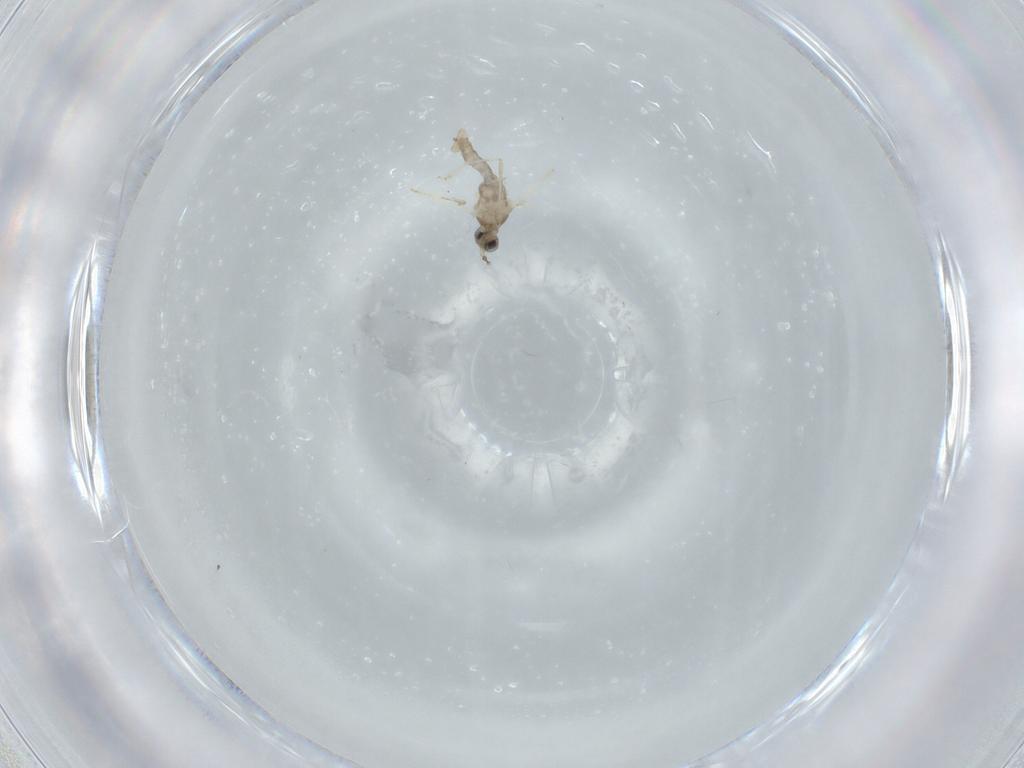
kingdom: Animalia
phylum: Arthropoda
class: Insecta
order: Diptera
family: Cecidomyiidae
